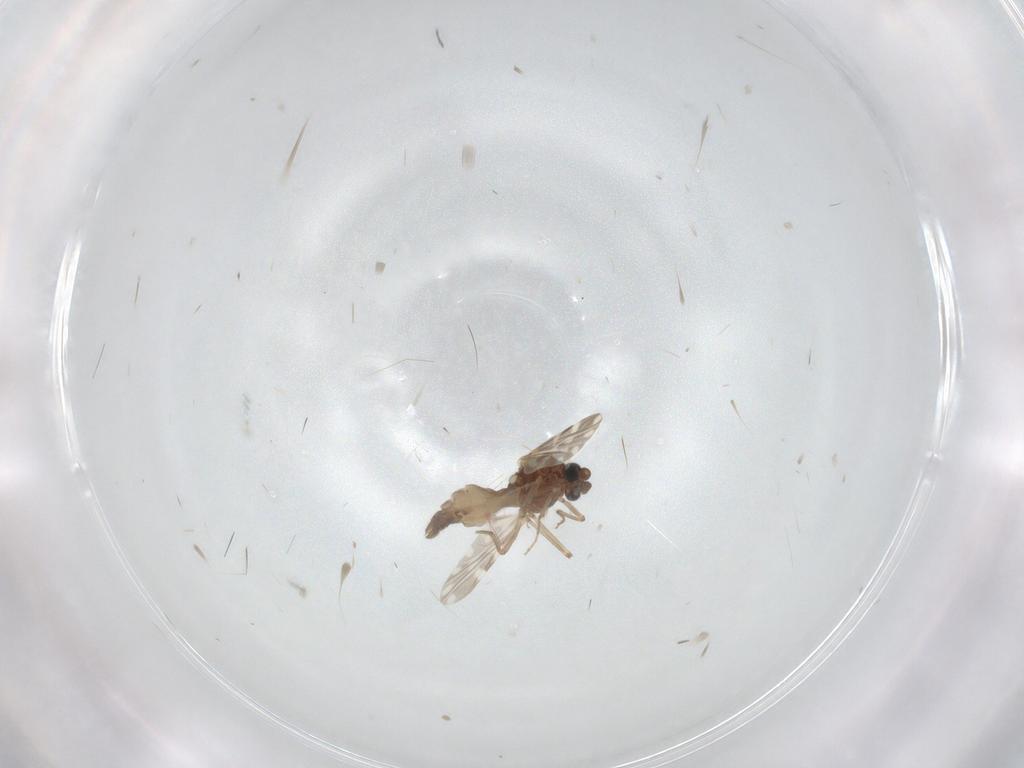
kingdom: Animalia
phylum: Arthropoda
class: Insecta
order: Diptera
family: Ceratopogonidae
